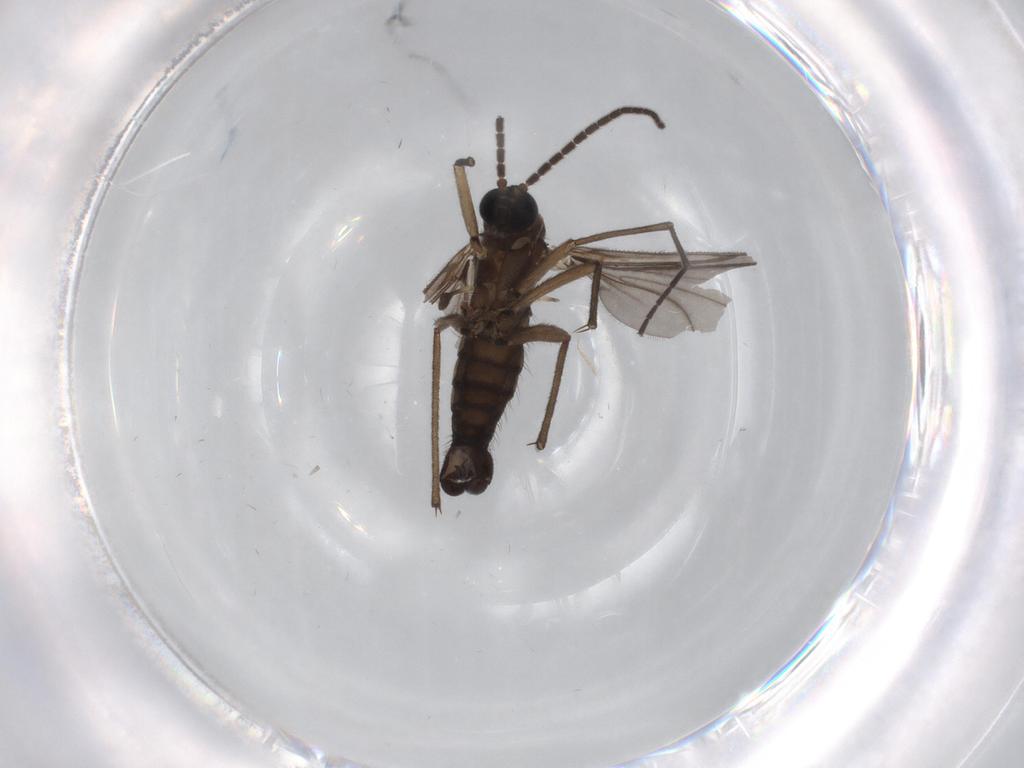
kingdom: Animalia
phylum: Arthropoda
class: Insecta
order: Diptera
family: Sciaridae
